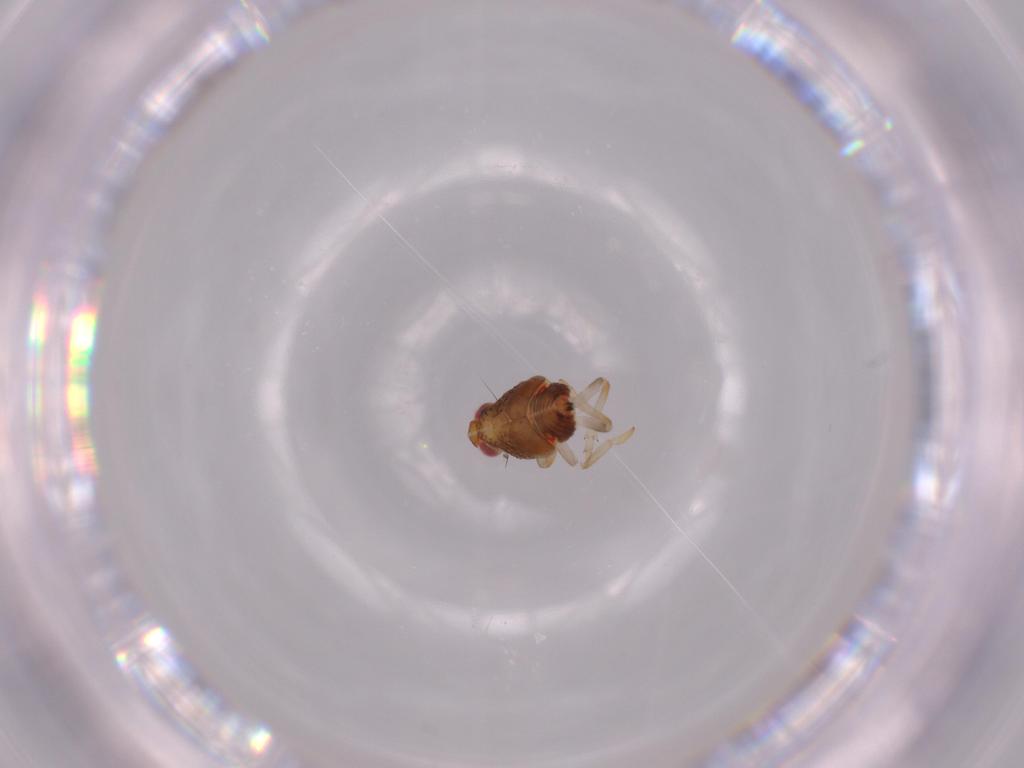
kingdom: Animalia
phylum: Arthropoda
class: Insecta
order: Hemiptera
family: Issidae
